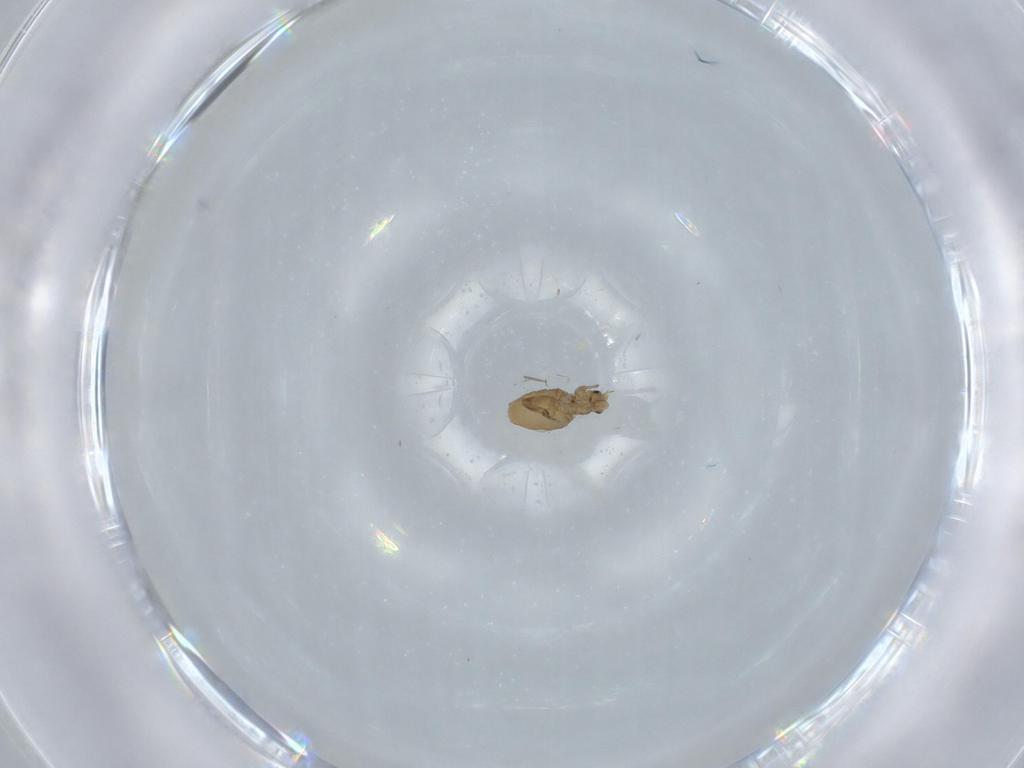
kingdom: Animalia
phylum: Arthropoda
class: Insecta
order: Diptera
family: Phoridae
